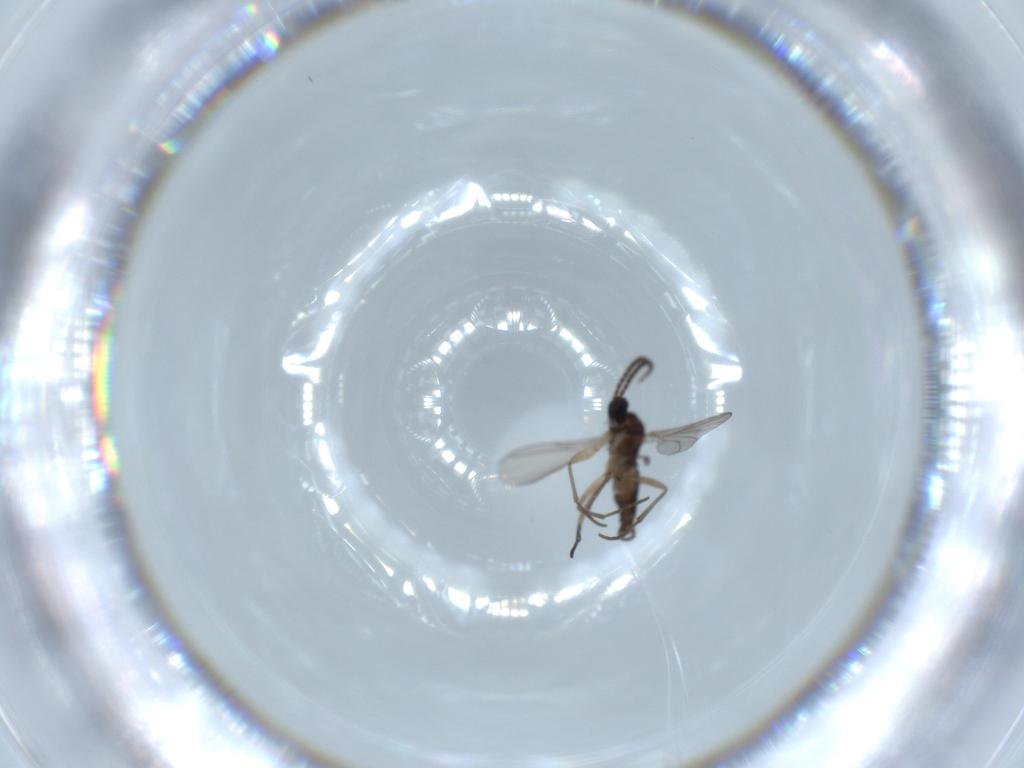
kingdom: Animalia
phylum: Arthropoda
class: Insecta
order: Diptera
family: Sciaridae
